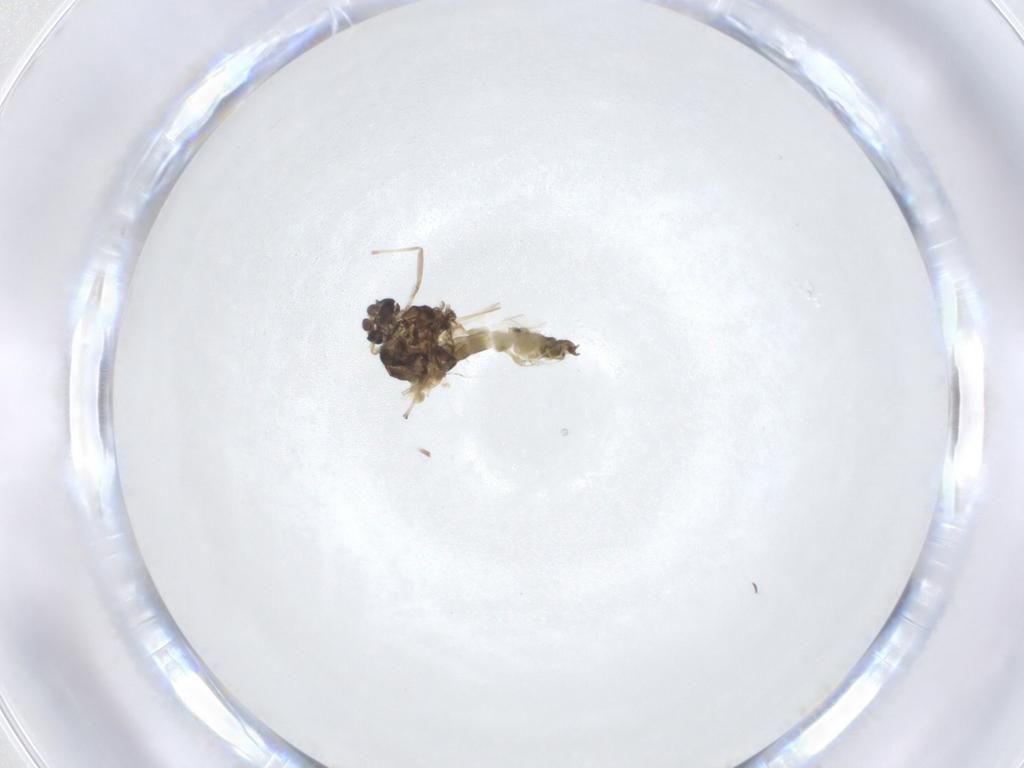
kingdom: Animalia
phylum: Arthropoda
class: Insecta
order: Diptera
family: Chironomidae
